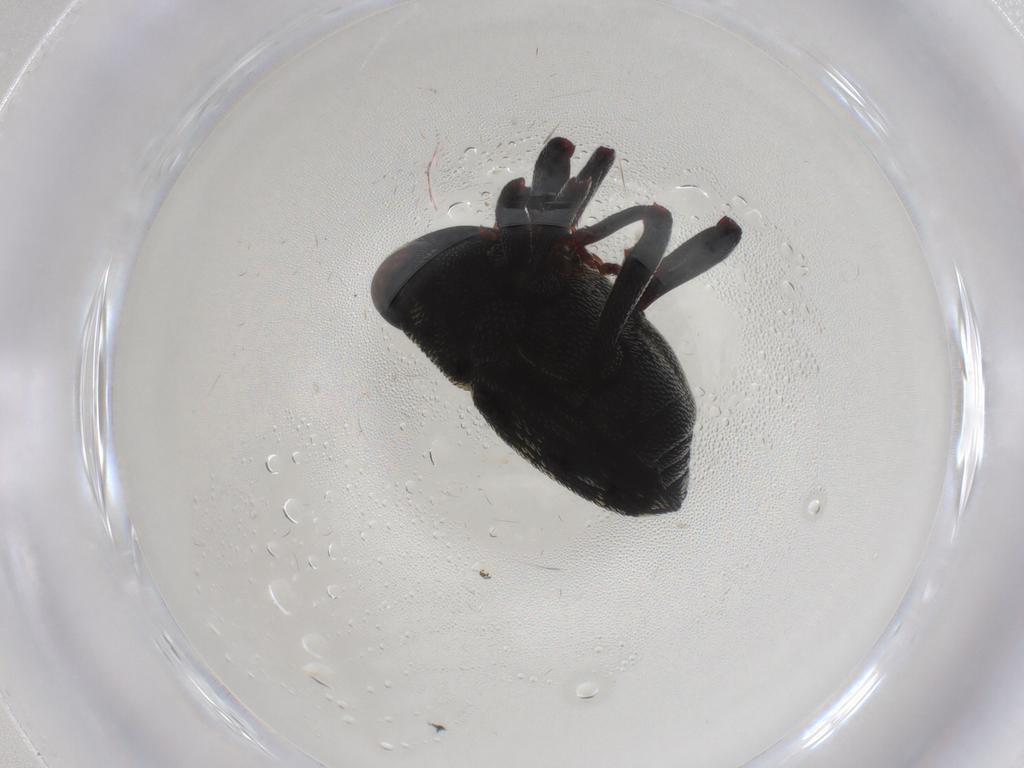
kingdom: Animalia
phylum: Arthropoda
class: Insecta
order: Coleoptera
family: Curculionidae
